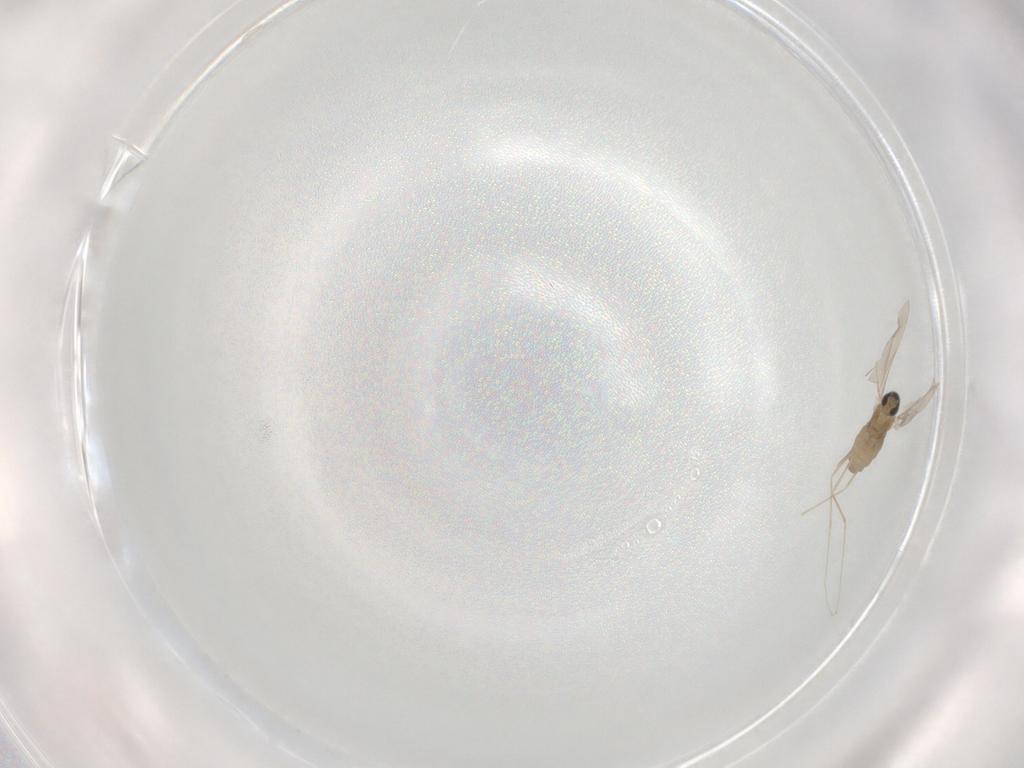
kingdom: Animalia
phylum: Arthropoda
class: Insecta
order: Diptera
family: Cecidomyiidae
